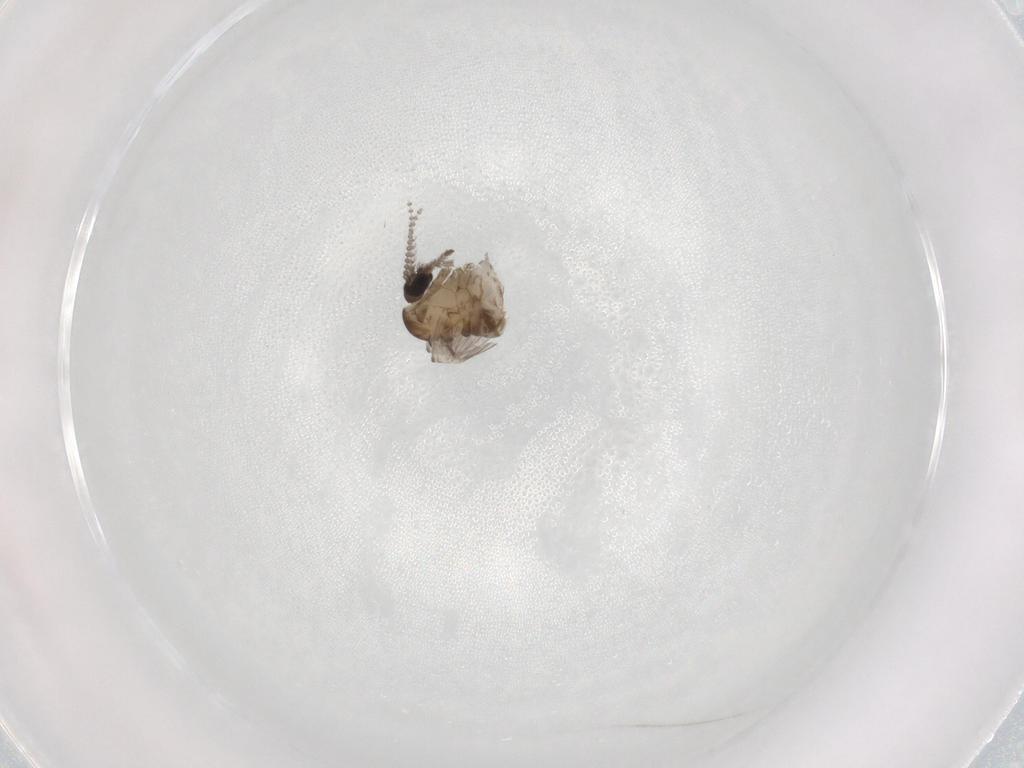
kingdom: Animalia
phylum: Arthropoda
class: Insecta
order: Diptera
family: Psychodidae
